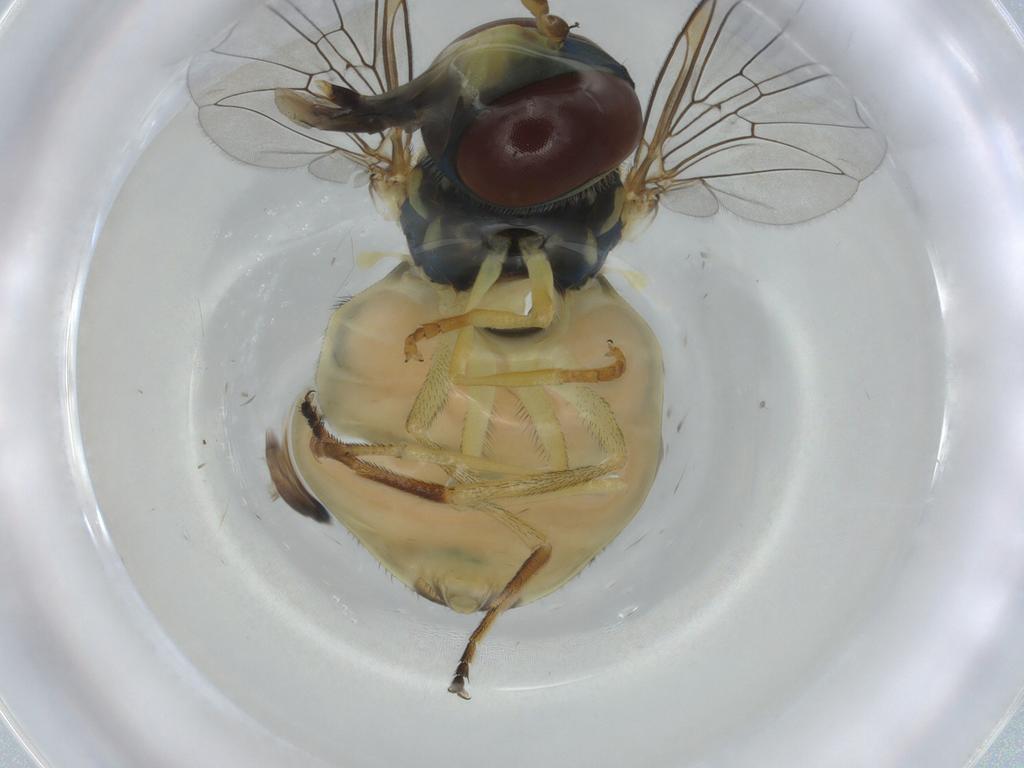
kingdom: Animalia
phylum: Arthropoda
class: Insecta
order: Diptera
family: Syrphidae
